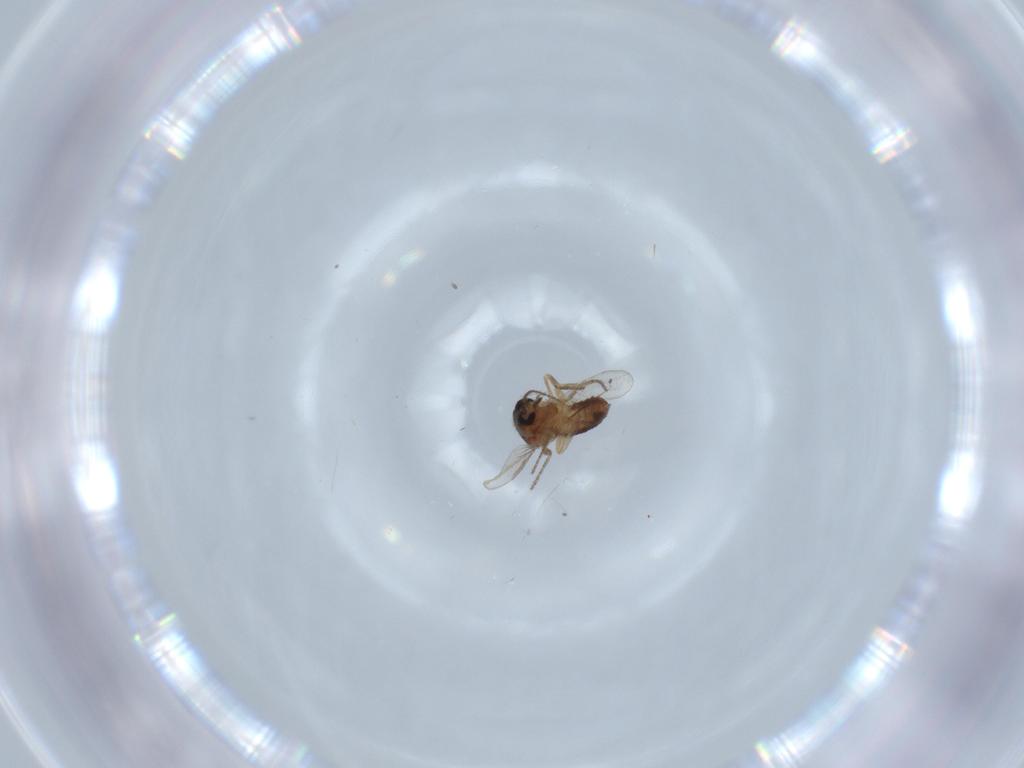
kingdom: Animalia
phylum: Arthropoda
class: Insecta
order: Diptera
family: Ceratopogonidae
